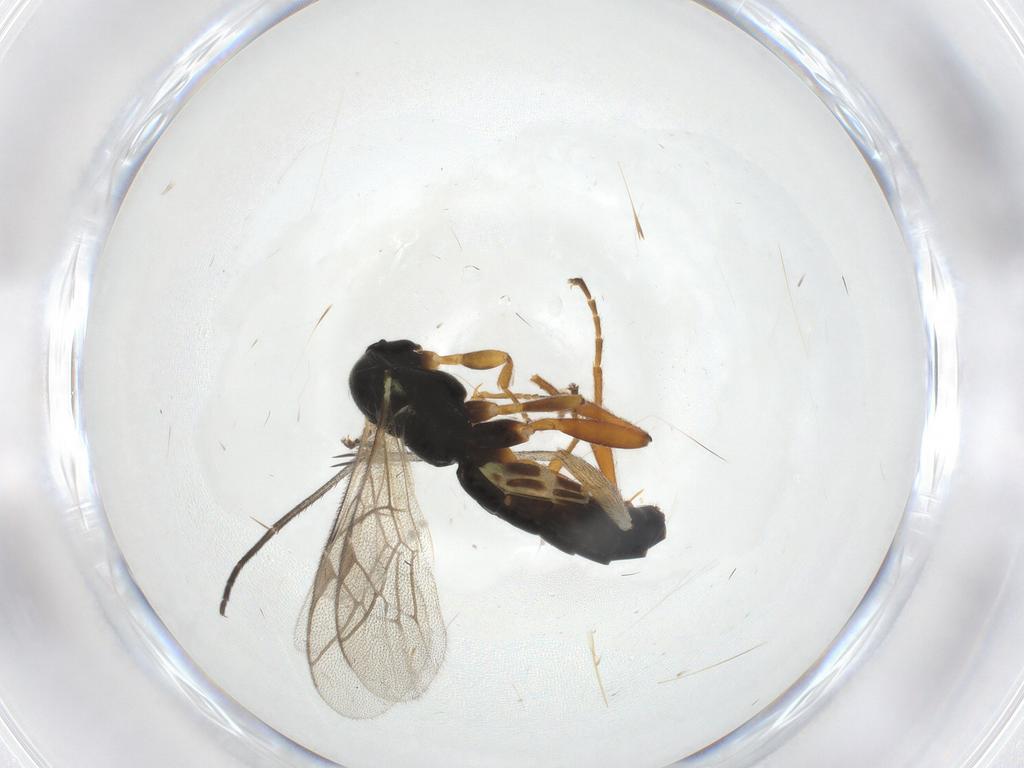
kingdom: Animalia
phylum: Arthropoda
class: Insecta
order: Hymenoptera
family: Ichneumonidae
